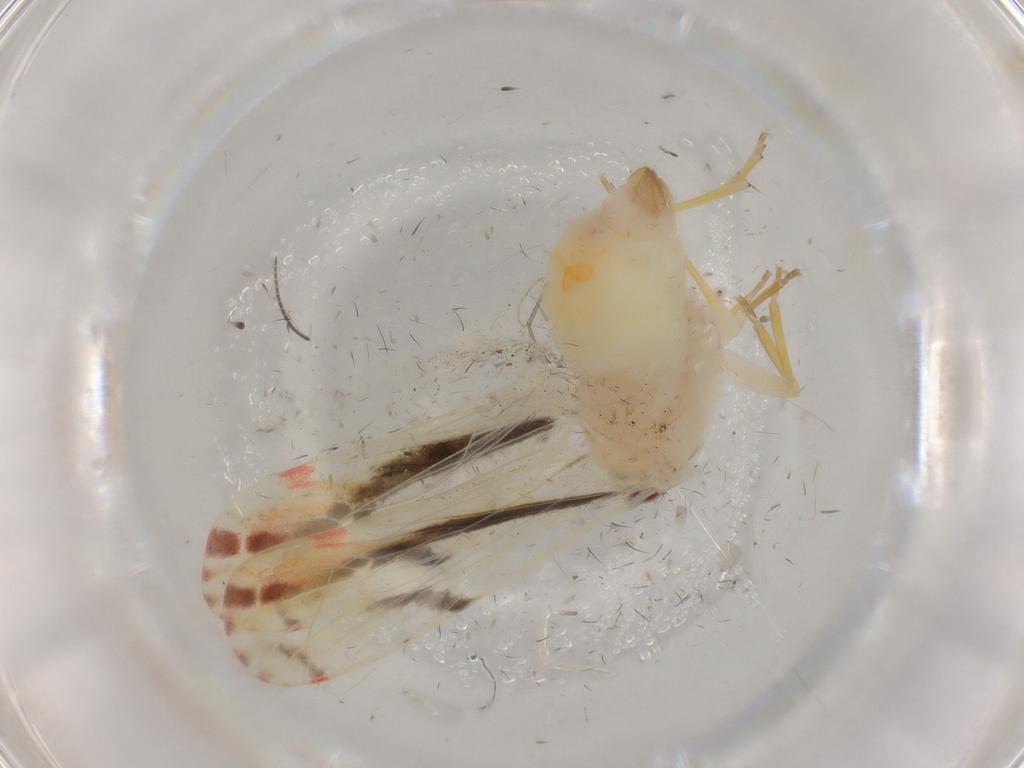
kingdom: Animalia
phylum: Arthropoda
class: Insecta
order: Hemiptera
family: Derbidae
